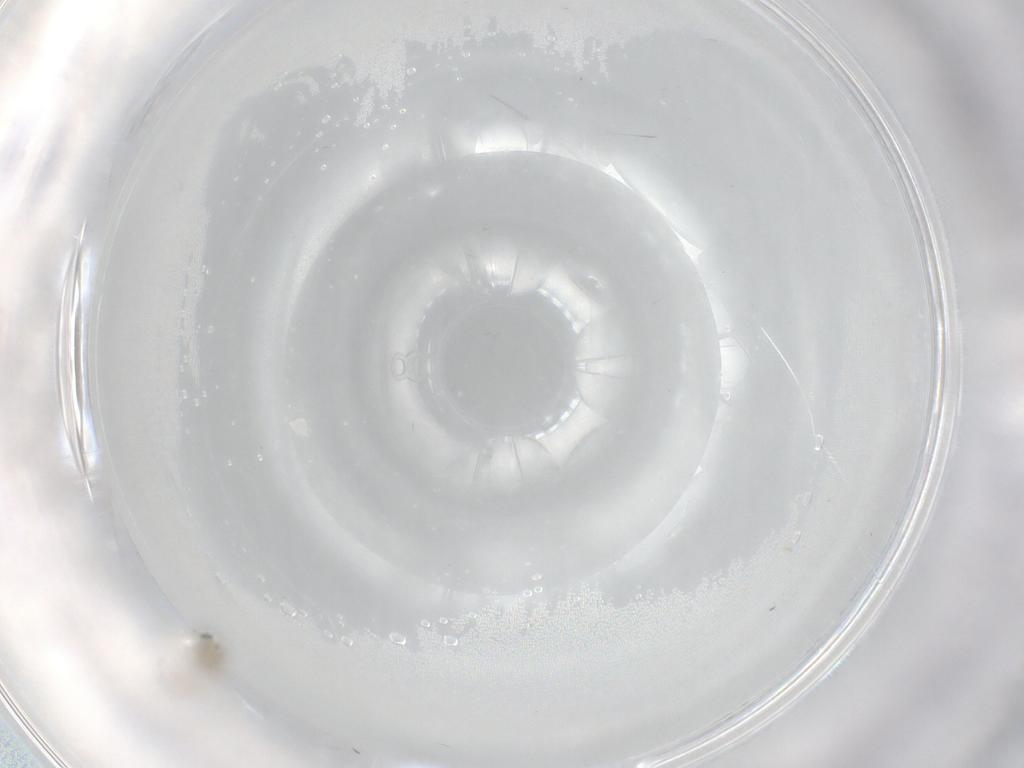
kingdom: Animalia
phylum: Arthropoda
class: Insecta
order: Diptera
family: Cecidomyiidae
